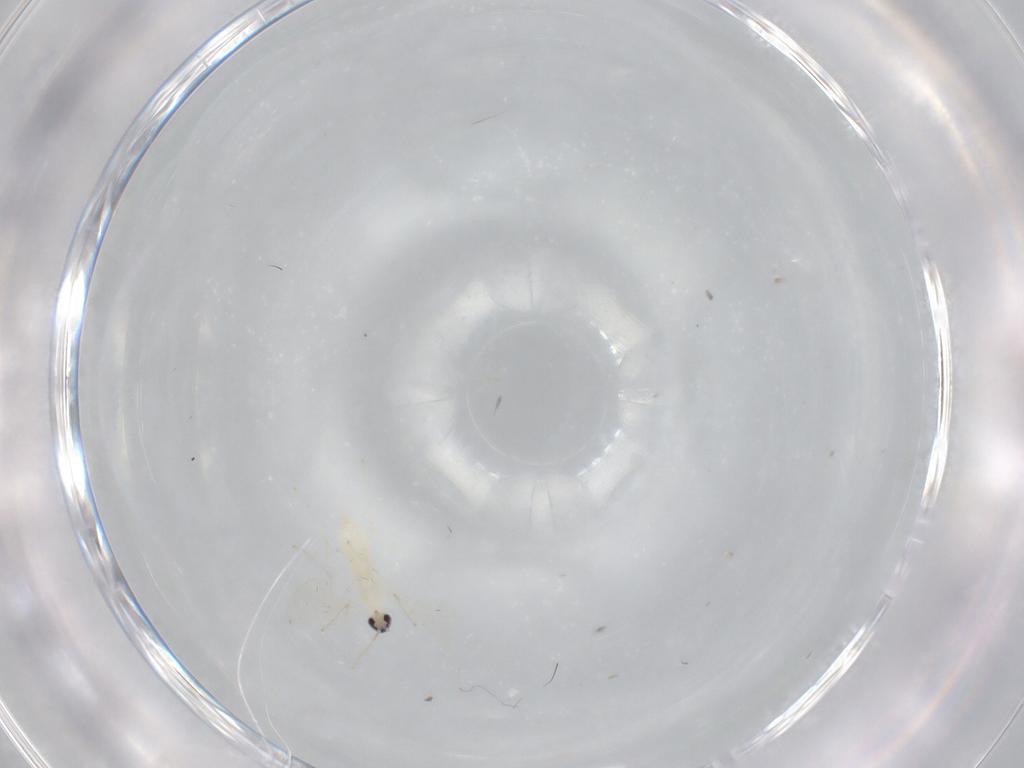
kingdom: Animalia
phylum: Arthropoda
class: Insecta
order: Diptera
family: Cecidomyiidae
